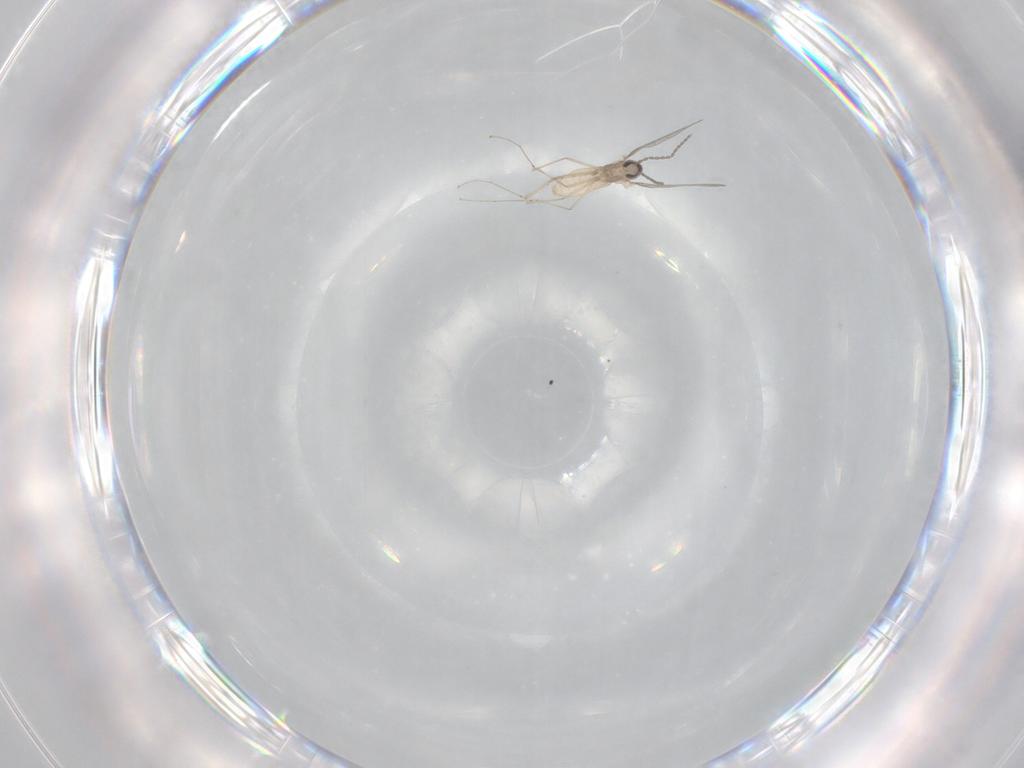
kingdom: Animalia
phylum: Arthropoda
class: Insecta
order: Diptera
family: Cecidomyiidae
